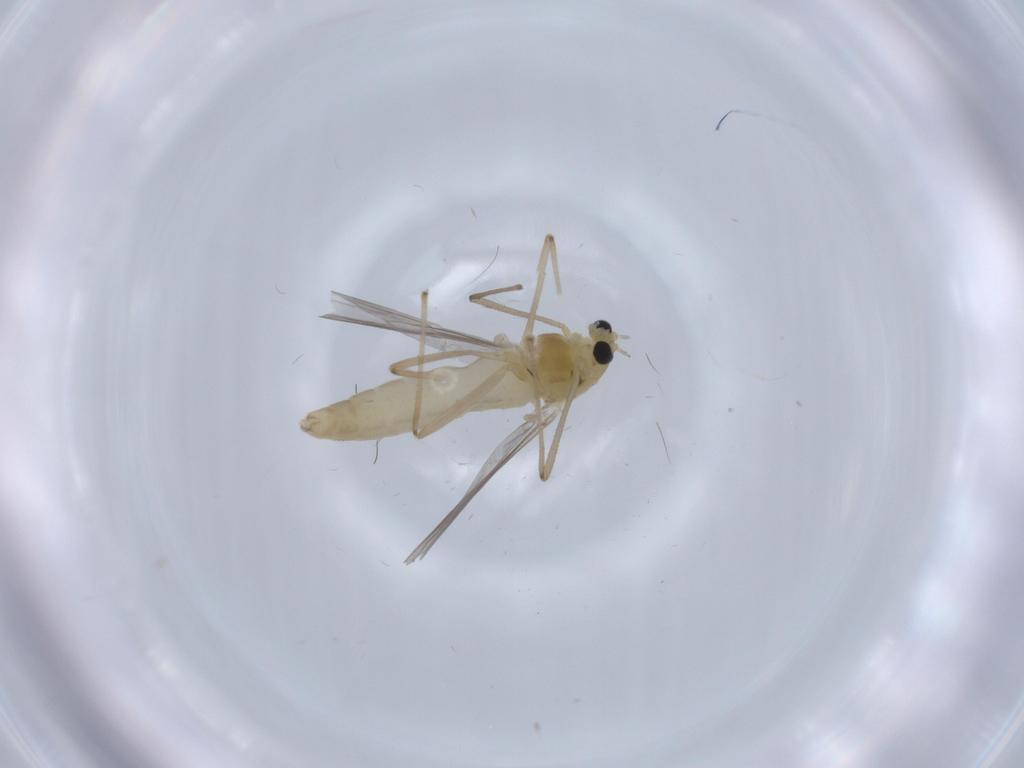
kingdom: Animalia
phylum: Arthropoda
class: Insecta
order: Diptera
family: Chironomidae
